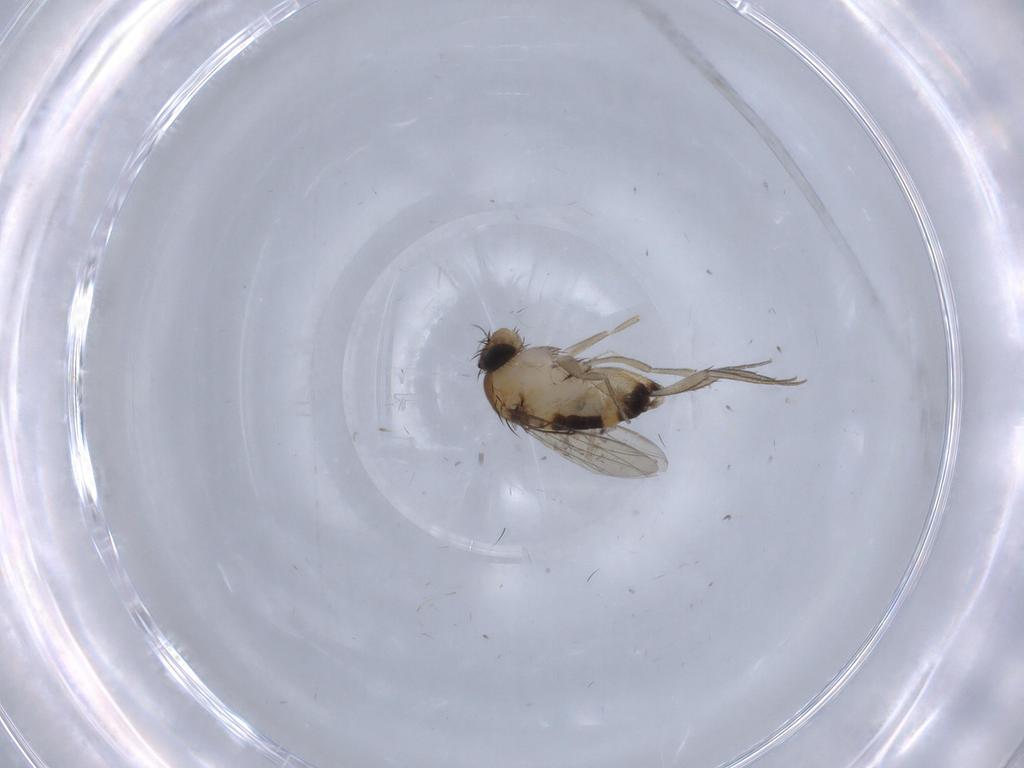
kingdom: Animalia
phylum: Arthropoda
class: Insecta
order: Diptera
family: Phoridae
